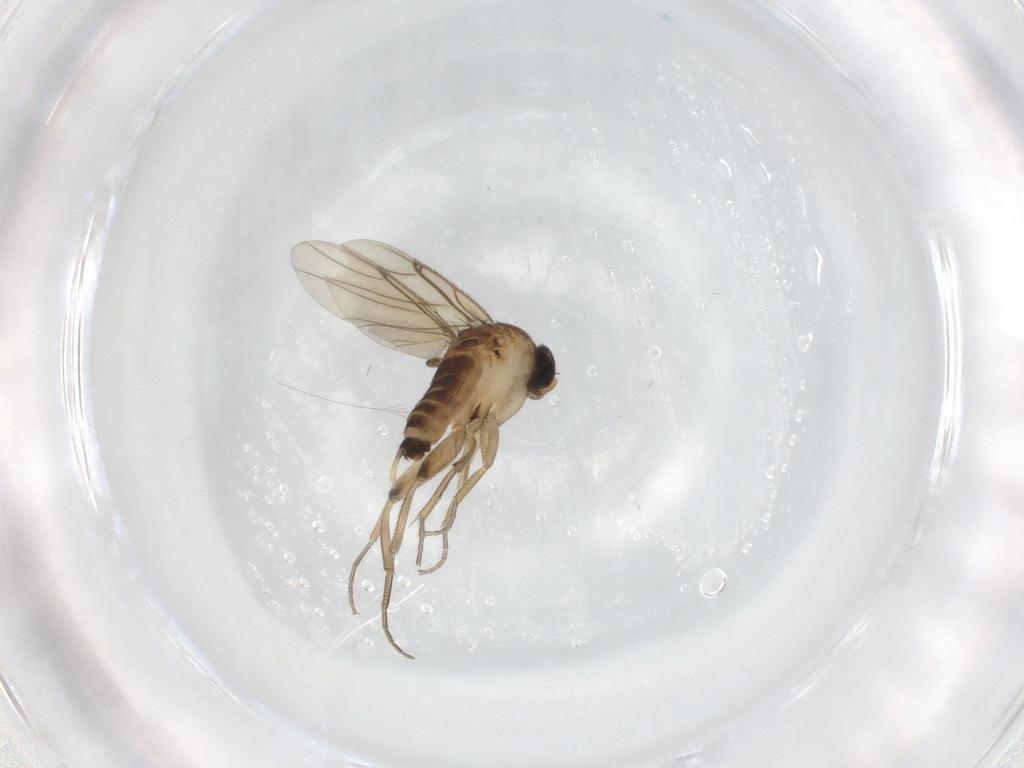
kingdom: Animalia
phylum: Arthropoda
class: Insecta
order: Diptera
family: Phoridae
